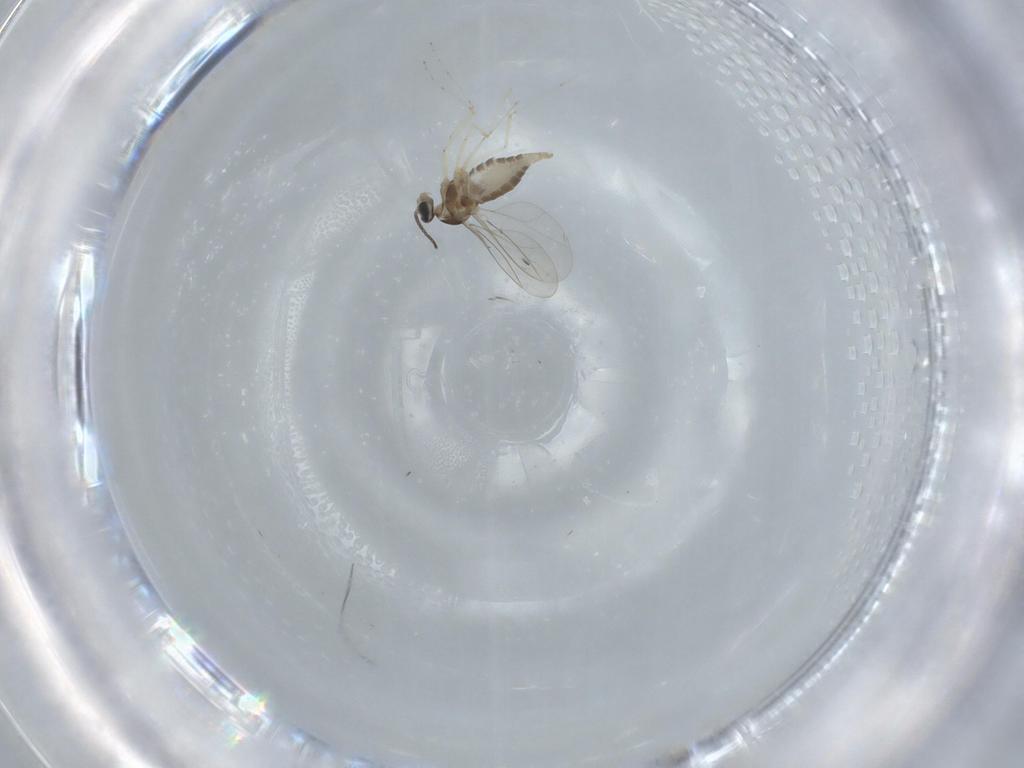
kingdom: Animalia
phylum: Arthropoda
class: Insecta
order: Diptera
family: Cecidomyiidae
